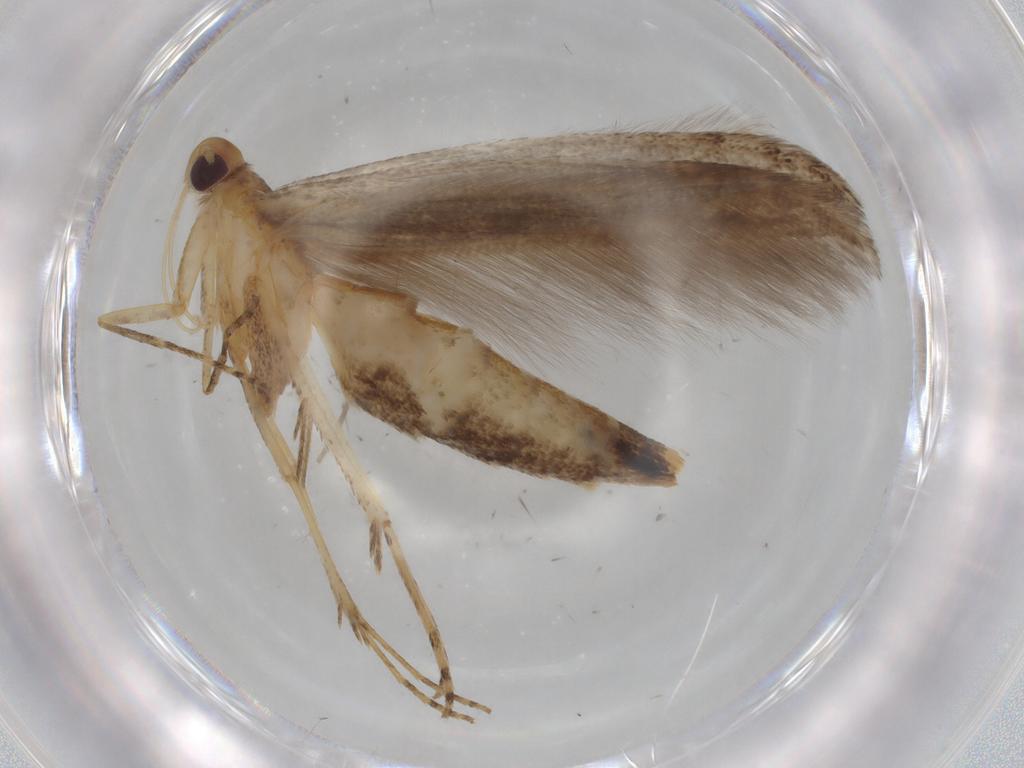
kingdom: Animalia
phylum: Arthropoda
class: Insecta
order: Lepidoptera
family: Batrachedridae
